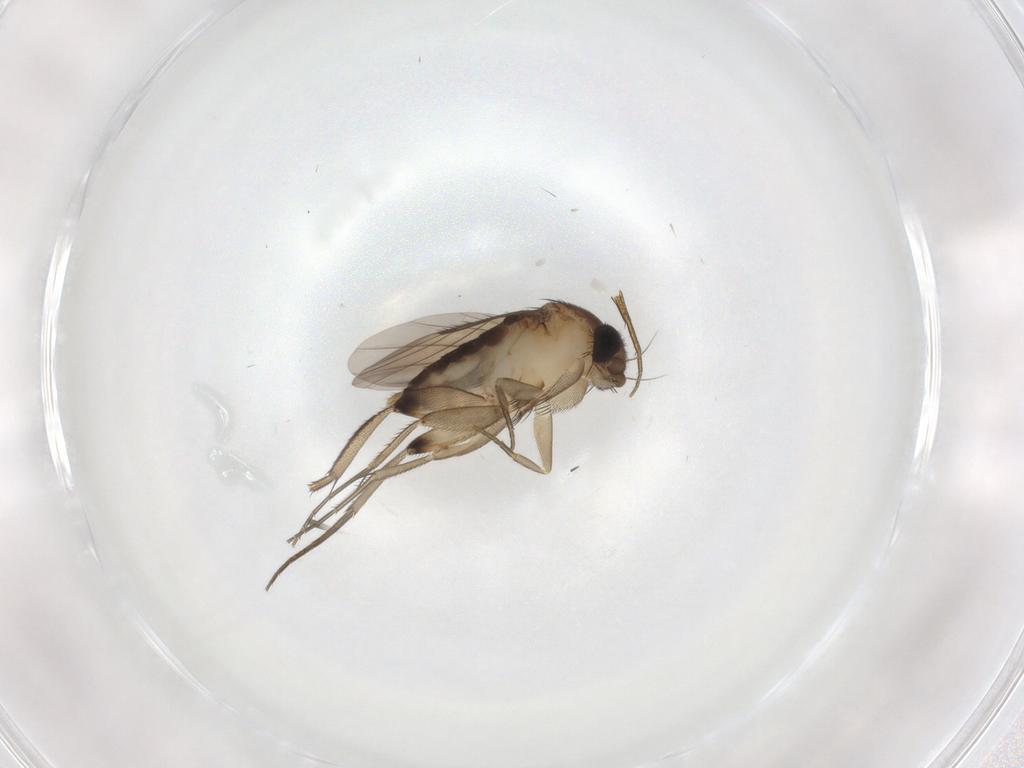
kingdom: Animalia
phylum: Arthropoda
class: Insecta
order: Diptera
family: Phoridae
